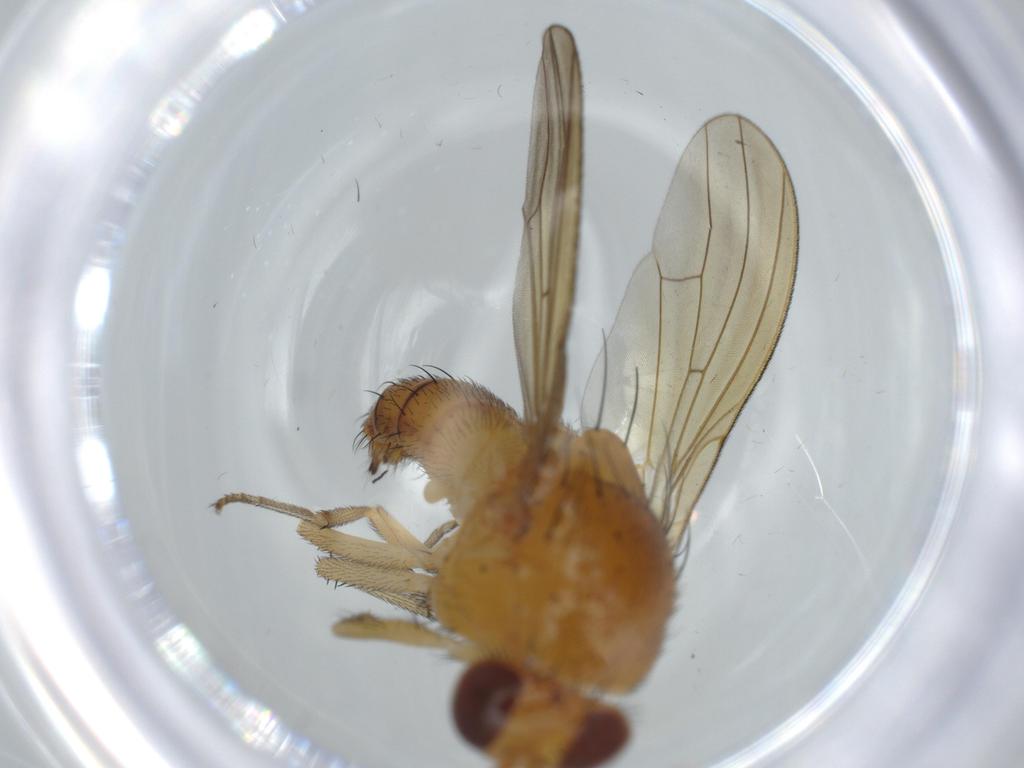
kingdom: Animalia
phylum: Arthropoda
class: Insecta
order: Diptera
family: Lauxaniidae
